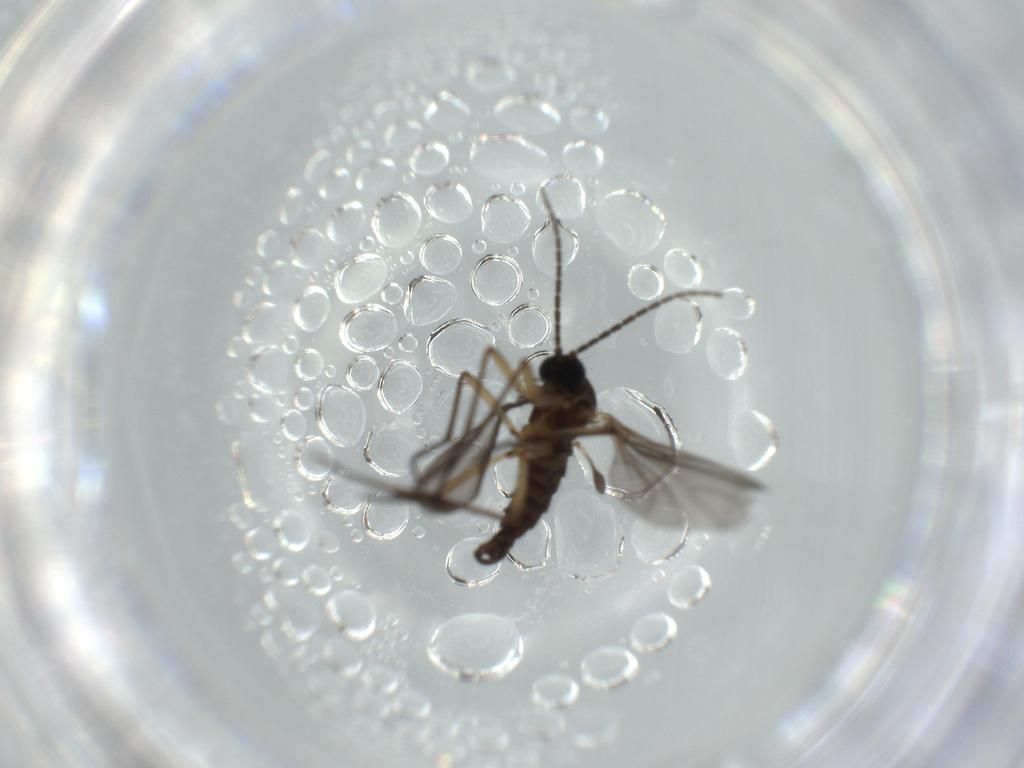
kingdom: Animalia
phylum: Arthropoda
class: Insecta
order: Diptera
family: Sciaridae
